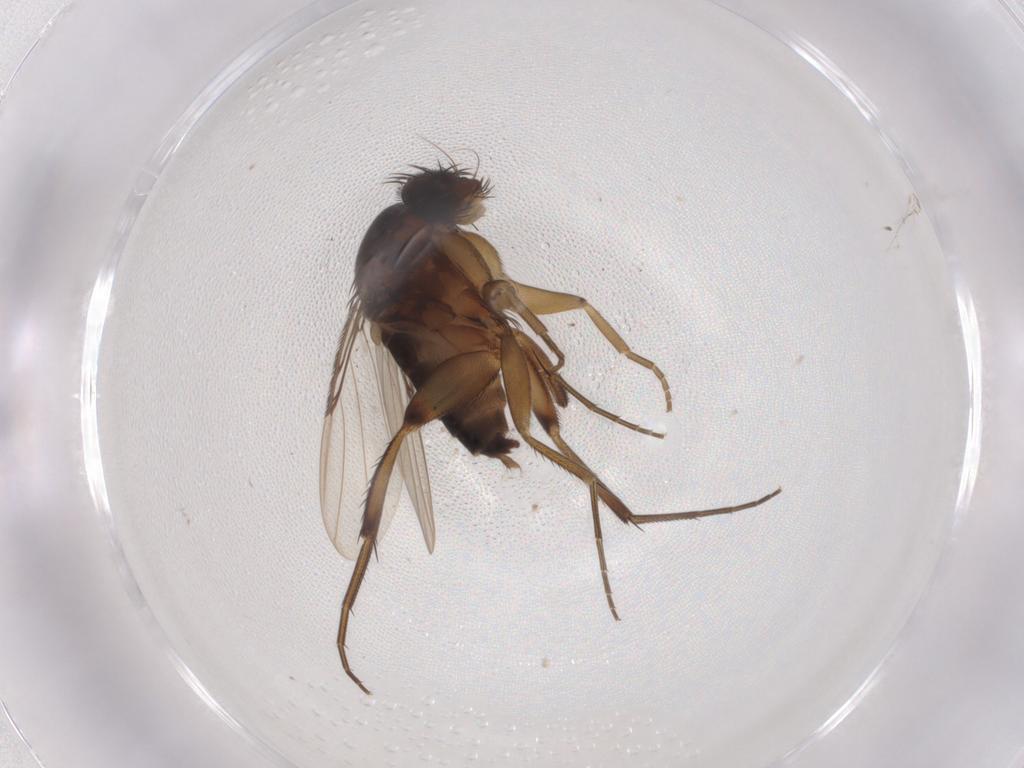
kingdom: Animalia
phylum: Arthropoda
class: Insecta
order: Diptera
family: Phoridae
